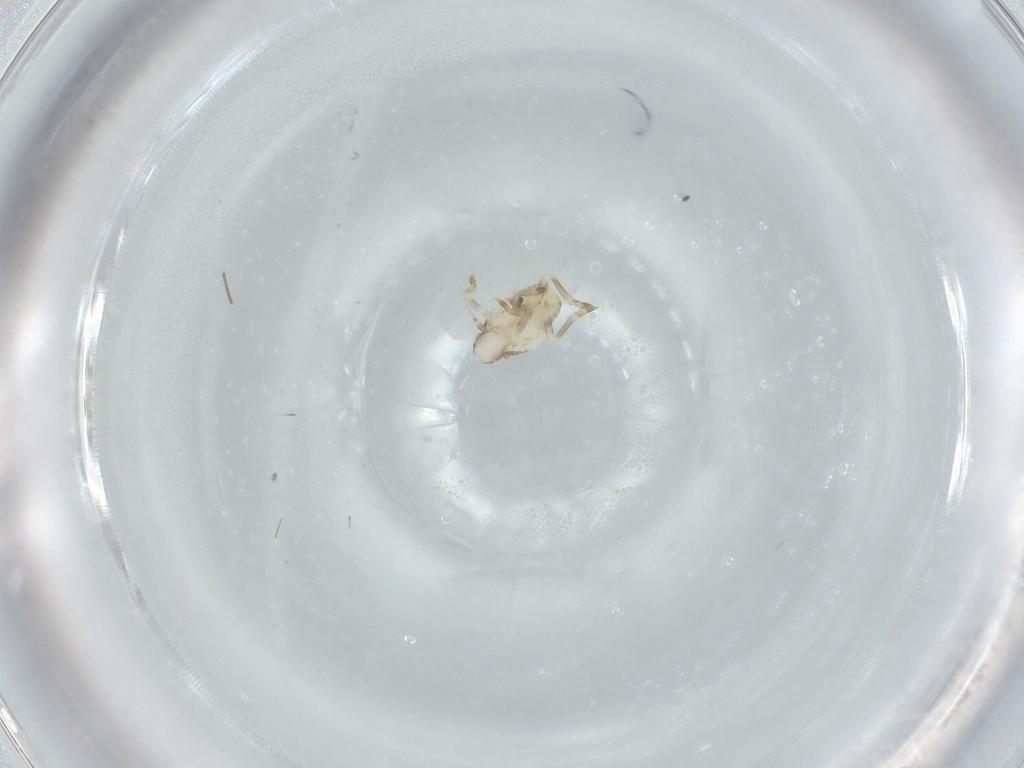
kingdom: Animalia
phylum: Arthropoda
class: Insecta
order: Hemiptera
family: Flatidae
